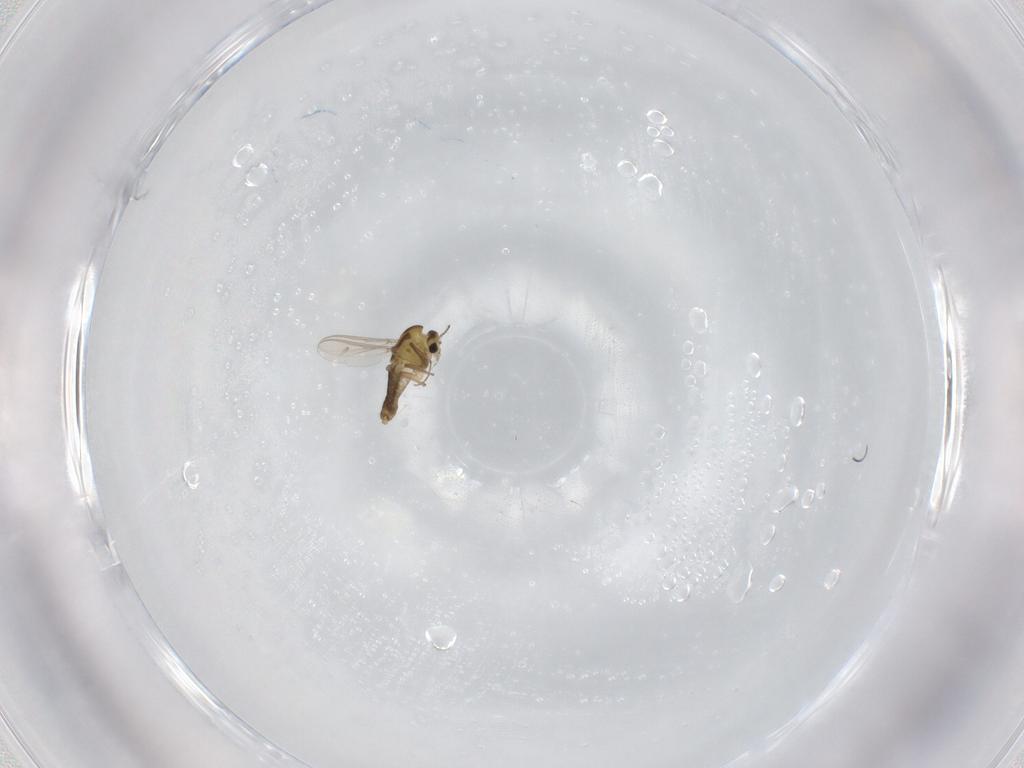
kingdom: Animalia
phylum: Arthropoda
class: Insecta
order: Diptera
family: Chironomidae
